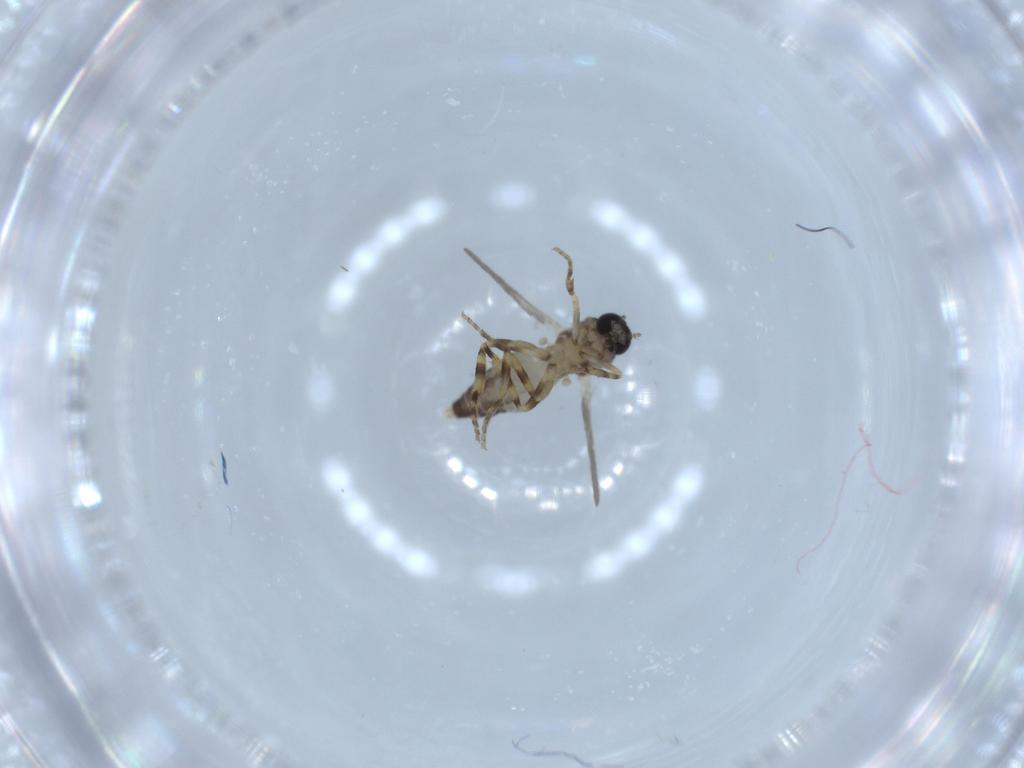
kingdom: Animalia
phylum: Arthropoda
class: Insecta
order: Diptera
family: Ceratopogonidae
